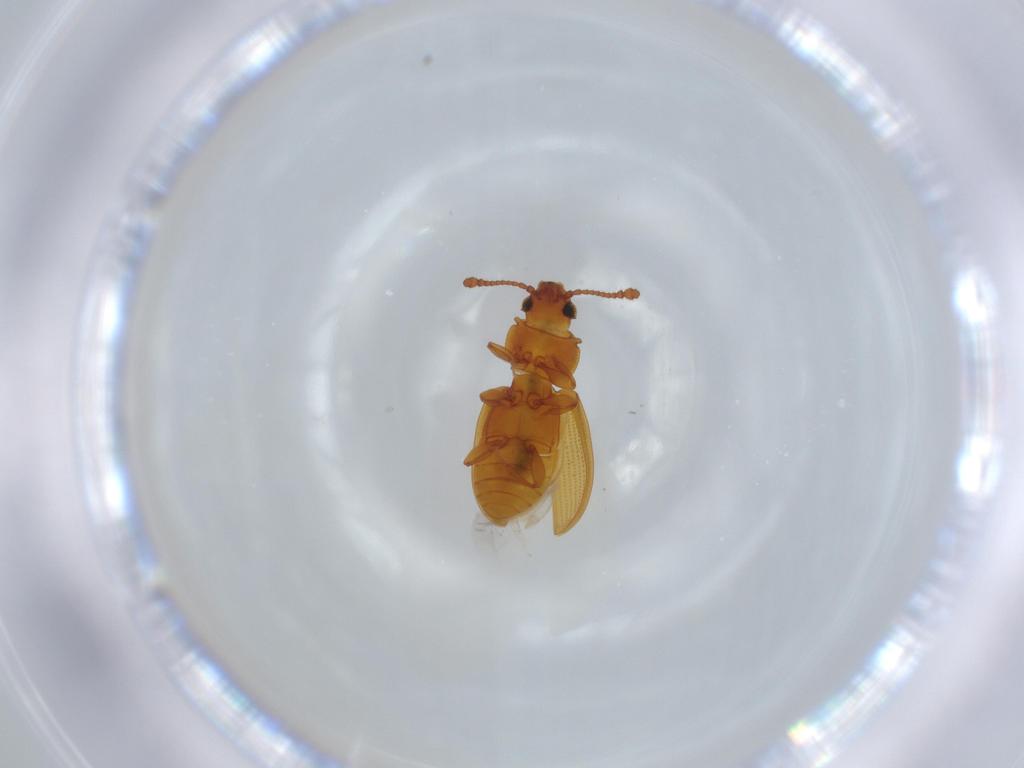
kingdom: Animalia
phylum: Arthropoda
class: Insecta
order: Coleoptera
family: Silvanidae
